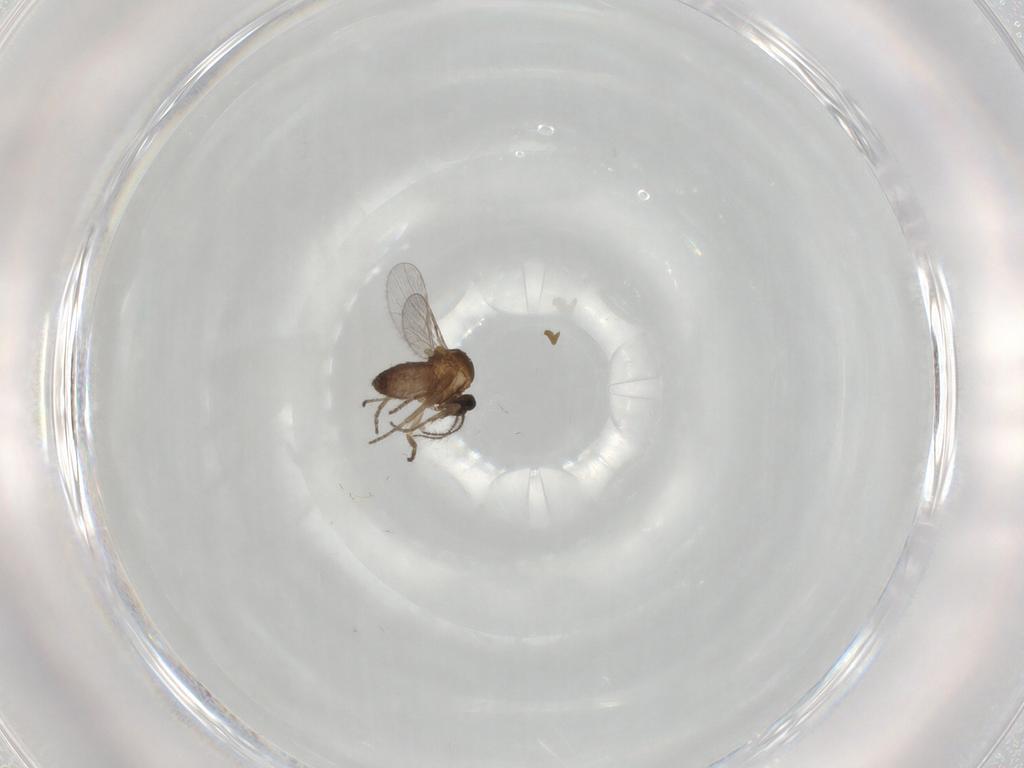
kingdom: Animalia
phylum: Arthropoda
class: Insecta
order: Diptera
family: Ceratopogonidae
